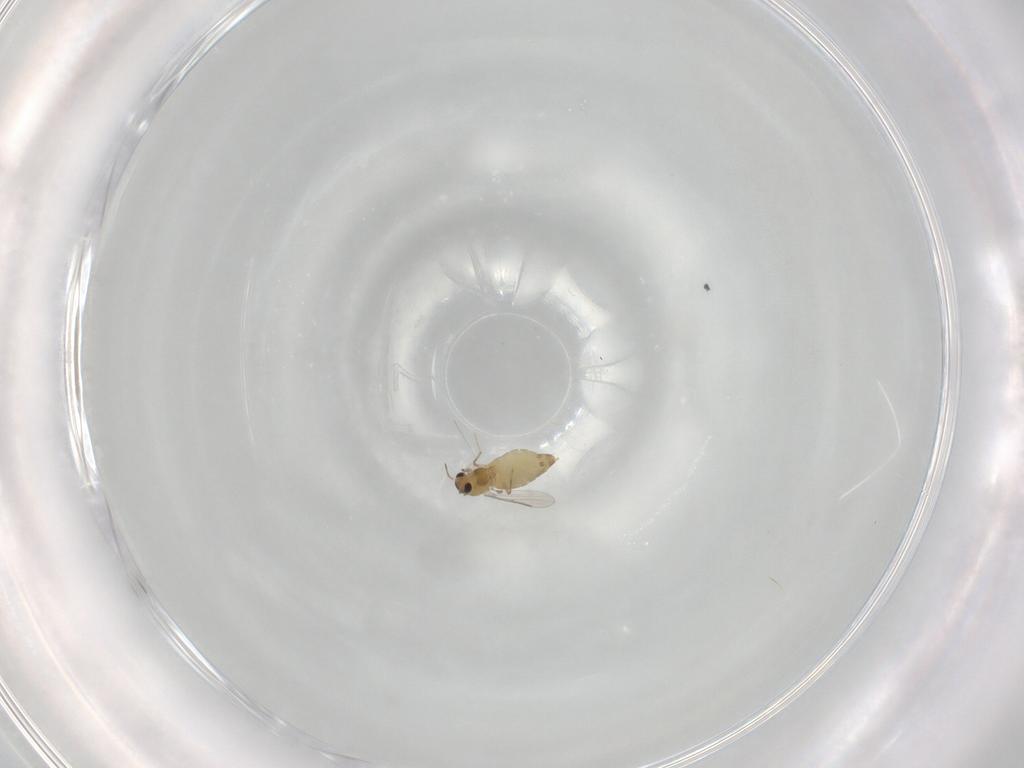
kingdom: Animalia
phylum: Arthropoda
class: Insecta
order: Diptera
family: Chironomidae
